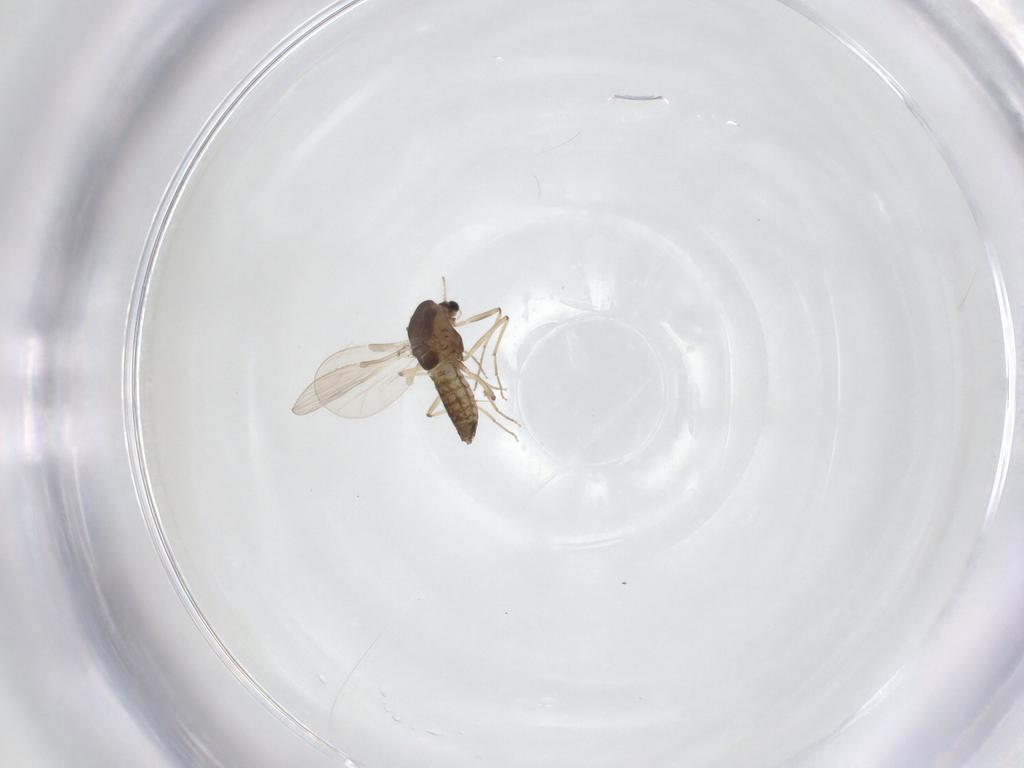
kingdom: Animalia
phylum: Arthropoda
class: Insecta
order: Diptera
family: Chironomidae
